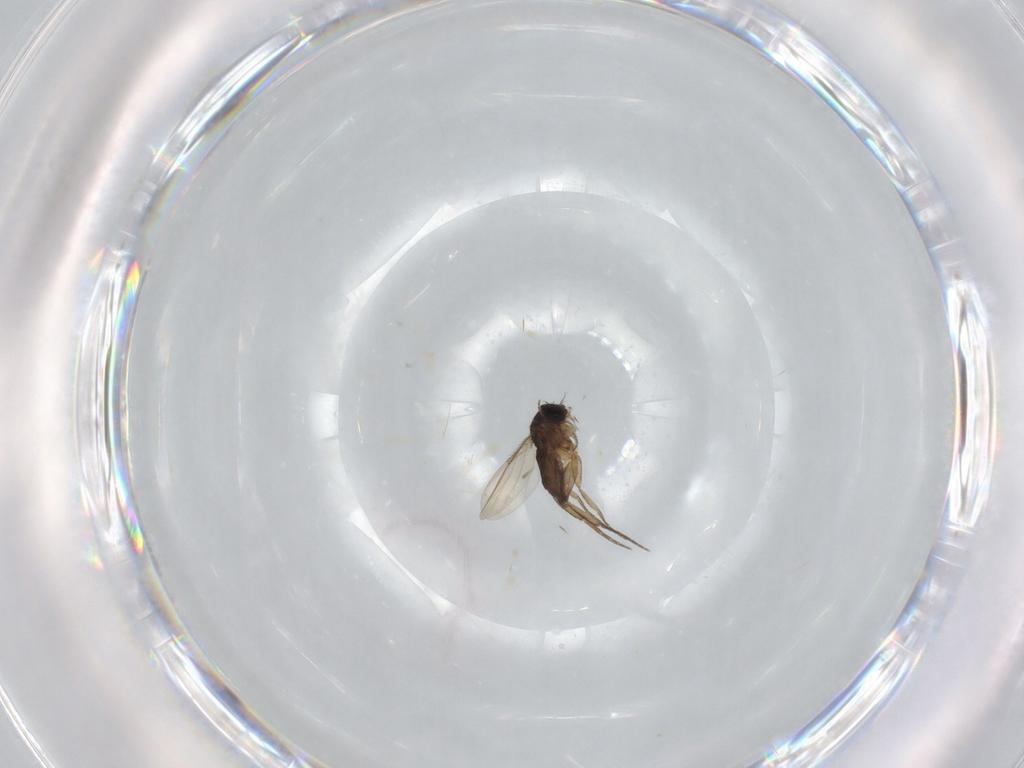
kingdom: Animalia
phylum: Arthropoda
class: Insecta
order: Diptera
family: Phoridae
